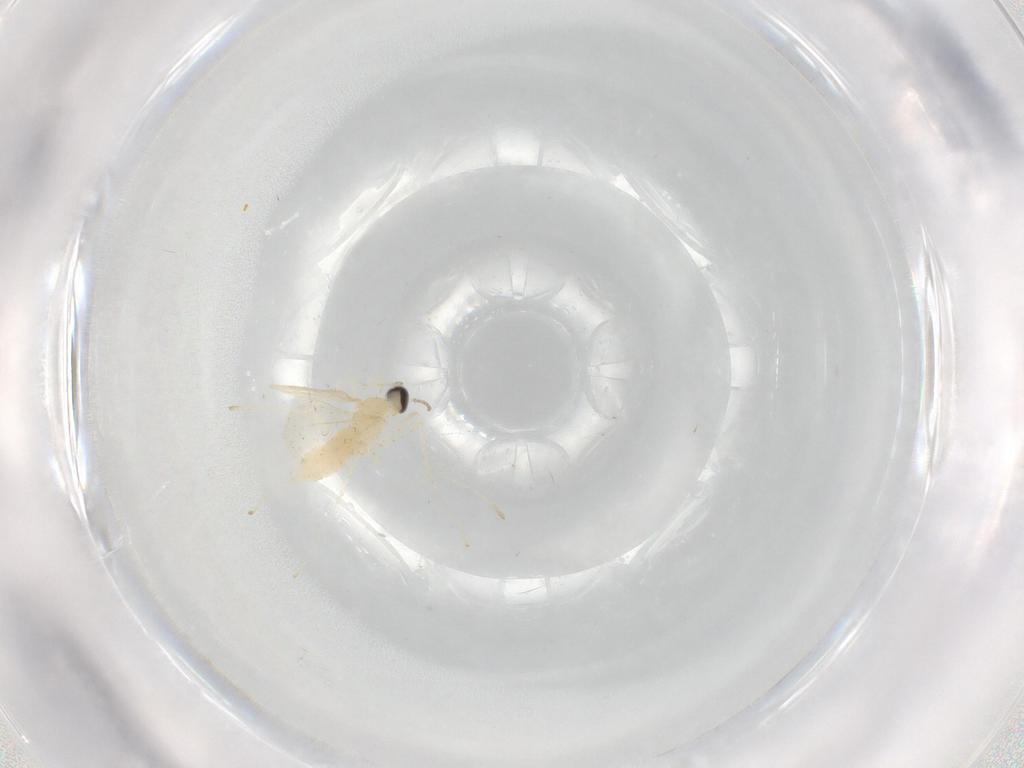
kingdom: Animalia
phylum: Arthropoda
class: Insecta
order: Diptera
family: Cecidomyiidae
